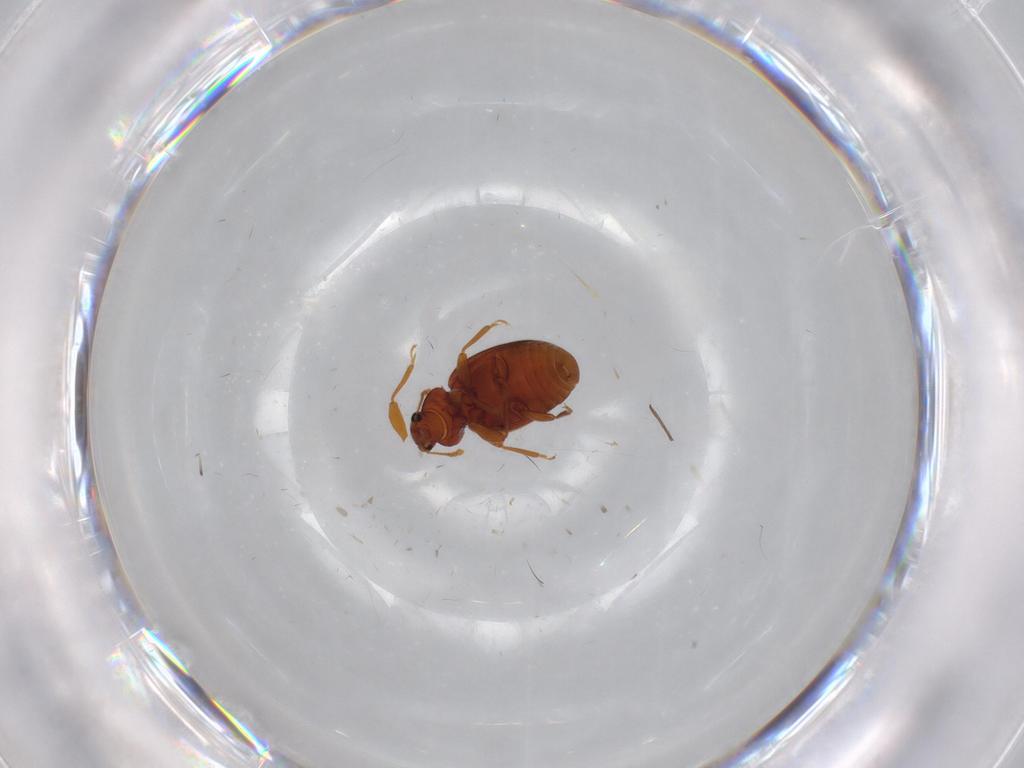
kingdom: Animalia
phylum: Arthropoda
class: Insecta
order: Coleoptera
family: Latridiidae
